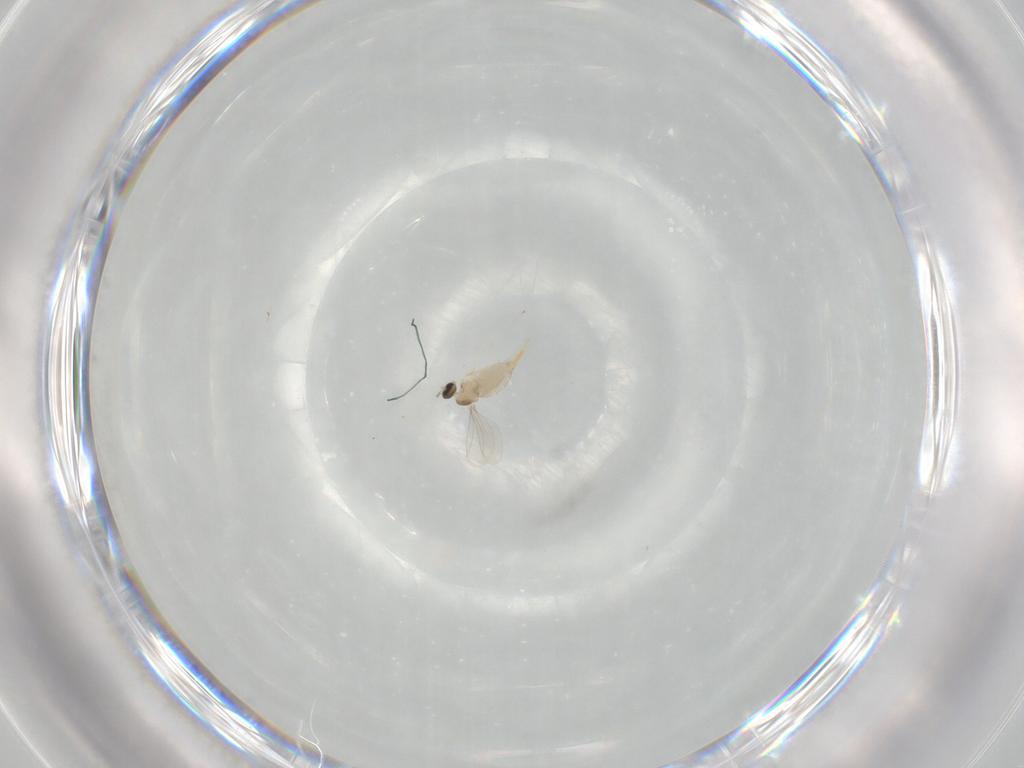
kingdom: Animalia
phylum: Arthropoda
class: Insecta
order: Diptera
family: Cecidomyiidae
